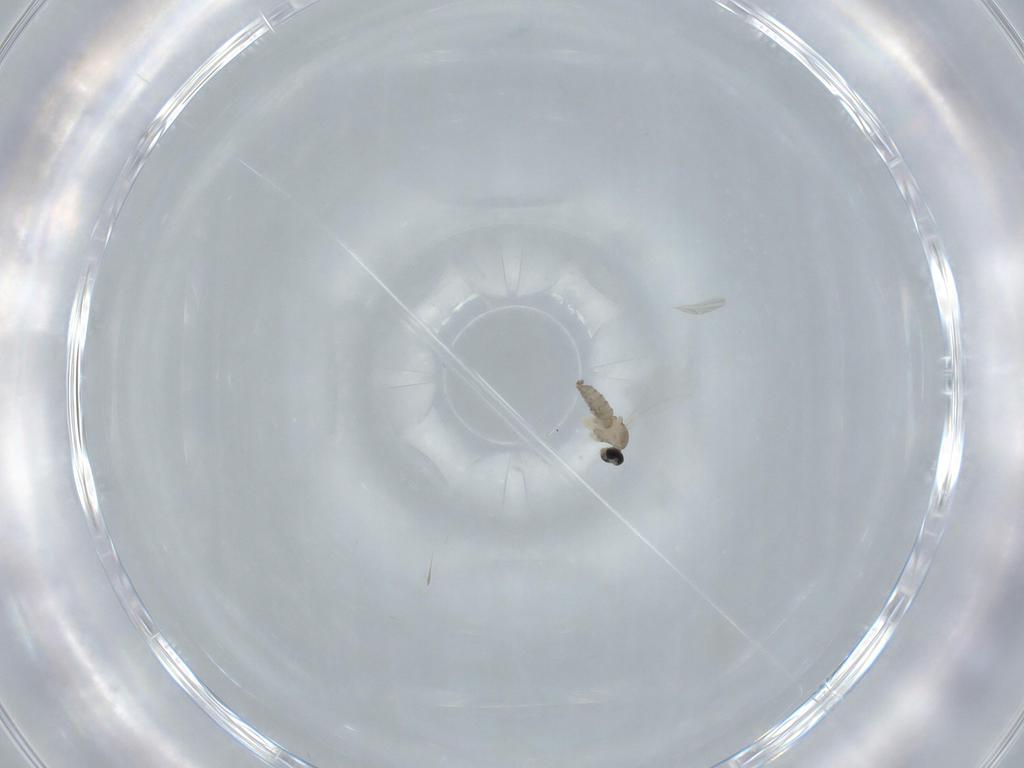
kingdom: Animalia
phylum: Arthropoda
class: Insecta
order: Diptera
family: Cecidomyiidae
